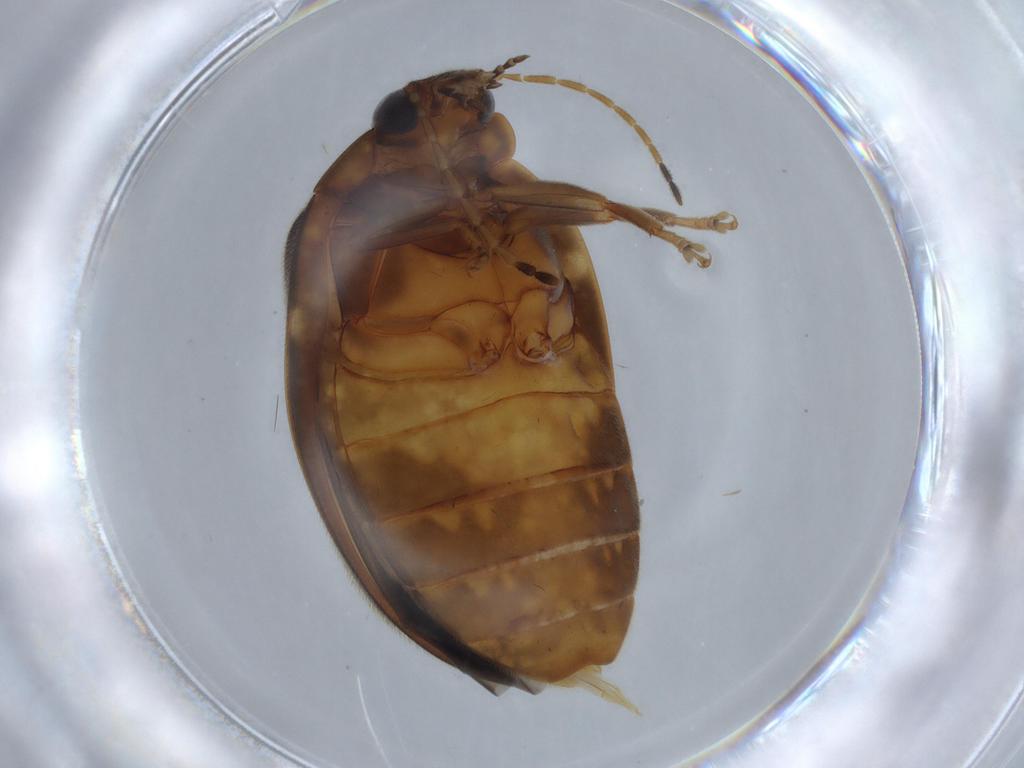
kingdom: Animalia
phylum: Arthropoda
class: Insecta
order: Coleoptera
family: Scirtidae
